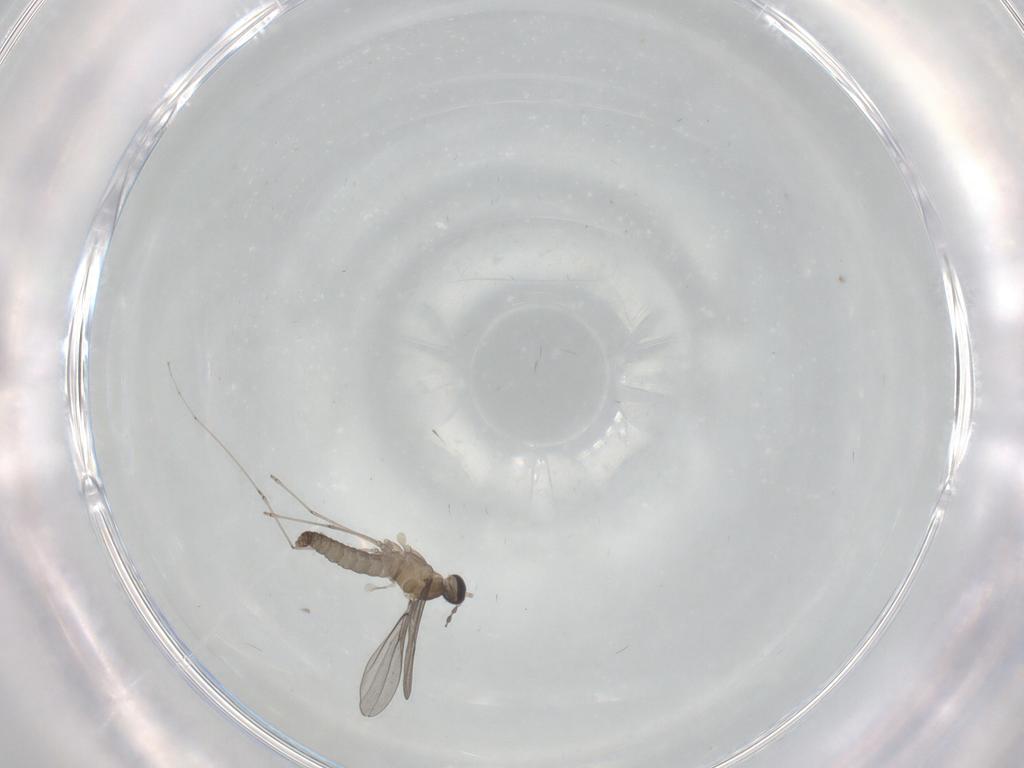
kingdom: Animalia
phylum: Arthropoda
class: Insecta
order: Diptera
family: Cecidomyiidae
